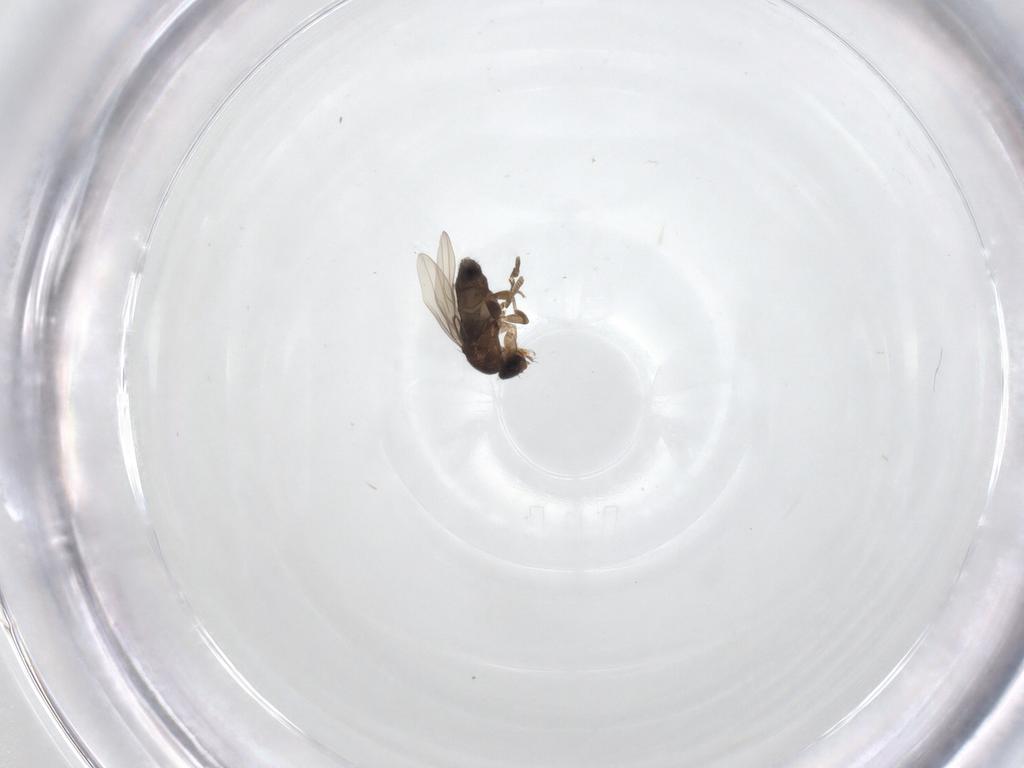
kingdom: Animalia
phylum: Arthropoda
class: Insecta
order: Diptera
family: Phoridae
